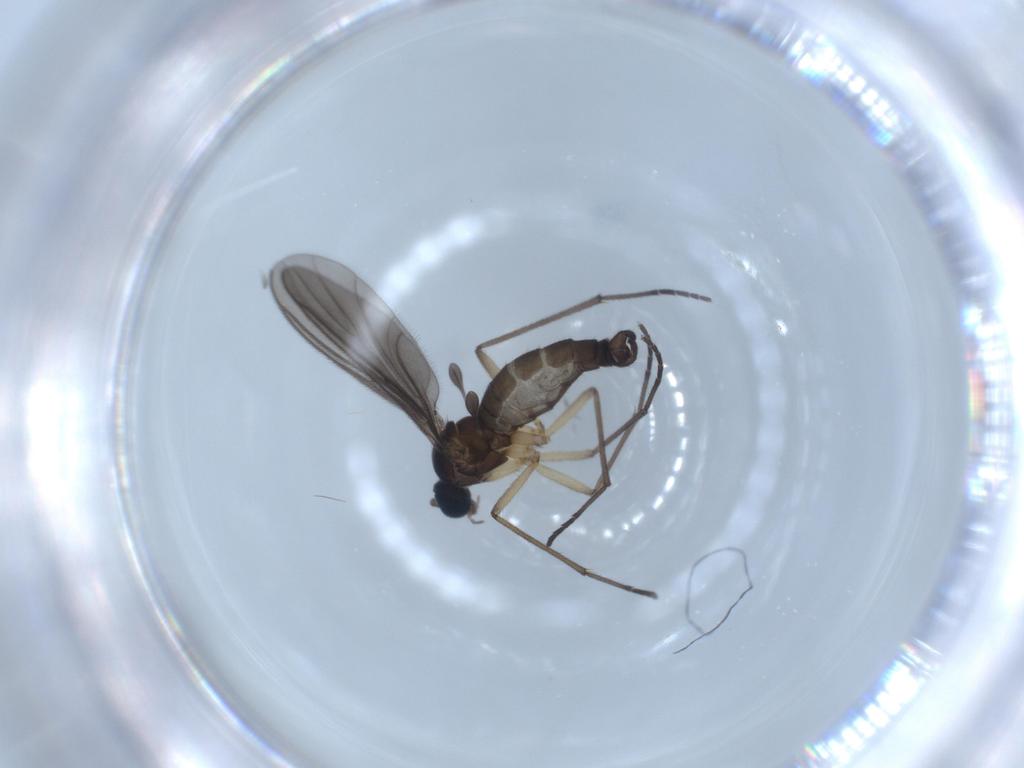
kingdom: Animalia
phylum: Arthropoda
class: Insecta
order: Diptera
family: Sciaridae
